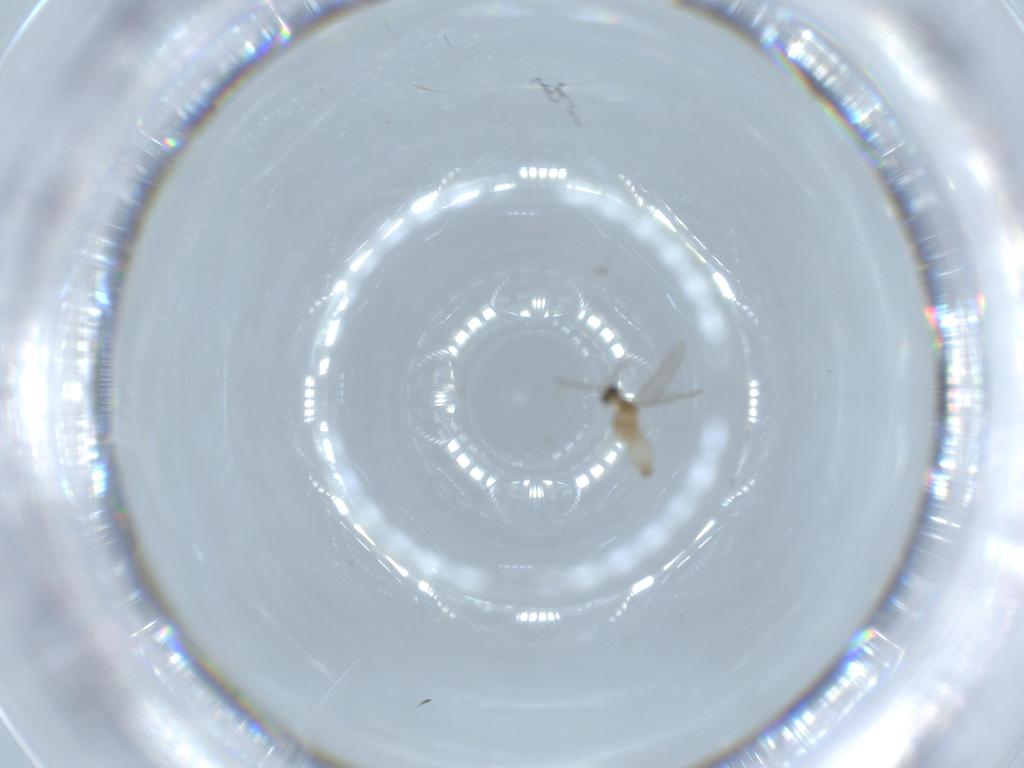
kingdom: Animalia
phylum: Arthropoda
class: Insecta
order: Diptera
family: Cecidomyiidae
